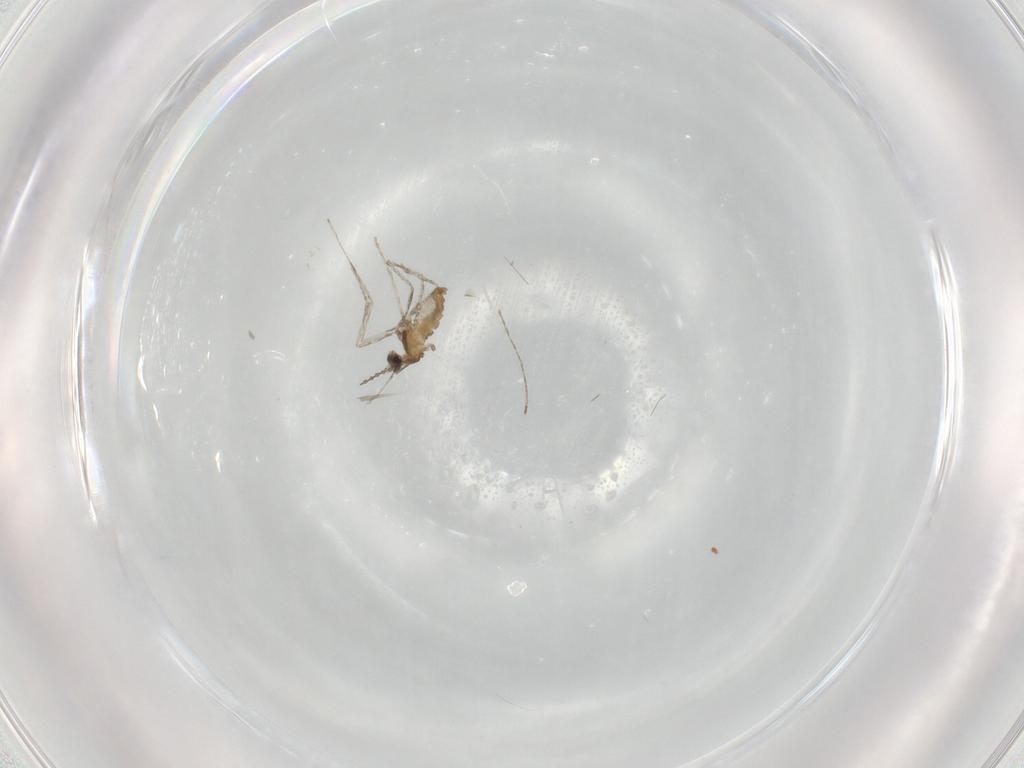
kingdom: Animalia
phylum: Arthropoda
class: Insecta
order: Diptera
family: Cecidomyiidae
